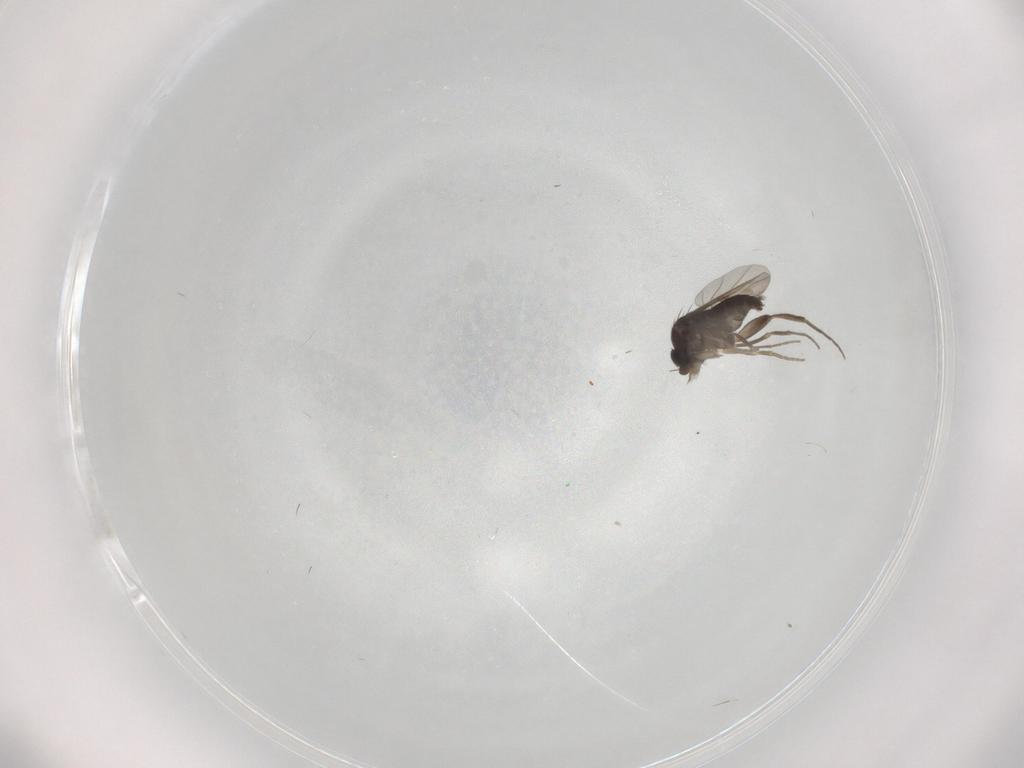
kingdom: Animalia
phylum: Arthropoda
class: Insecta
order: Diptera
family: Phoridae
